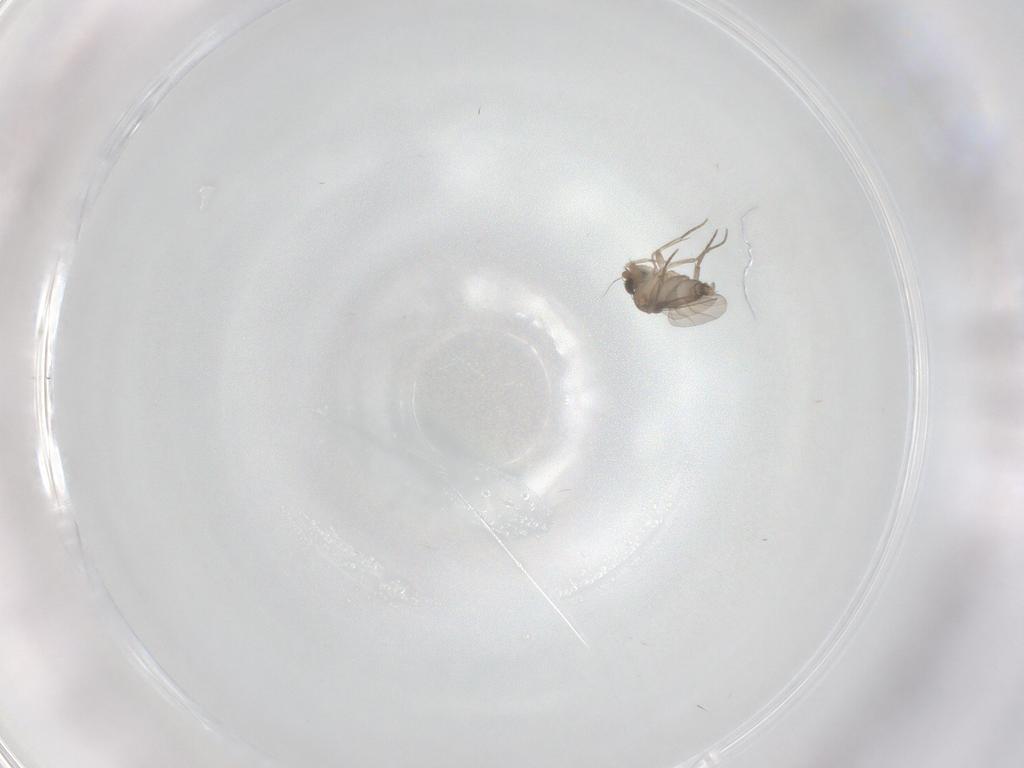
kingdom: Animalia
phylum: Arthropoda
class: Insecta
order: Diptera
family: Phoridae
